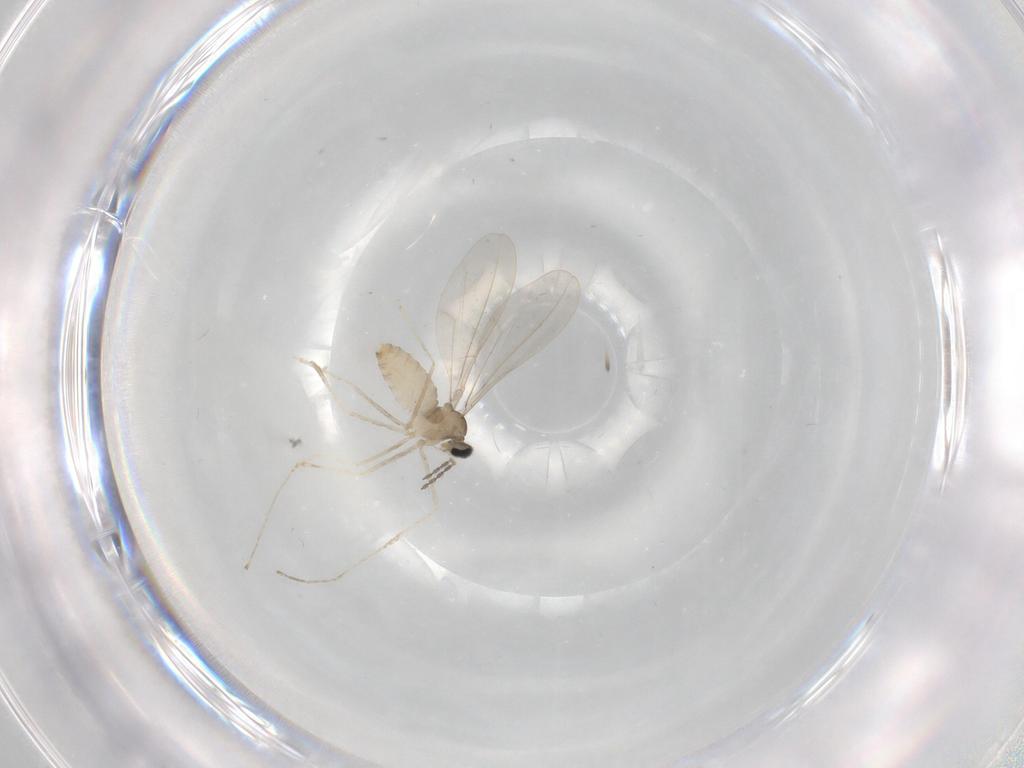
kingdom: Animalia
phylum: Arthropoda
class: Insecta
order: Diptera
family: Cecidomyiidae
